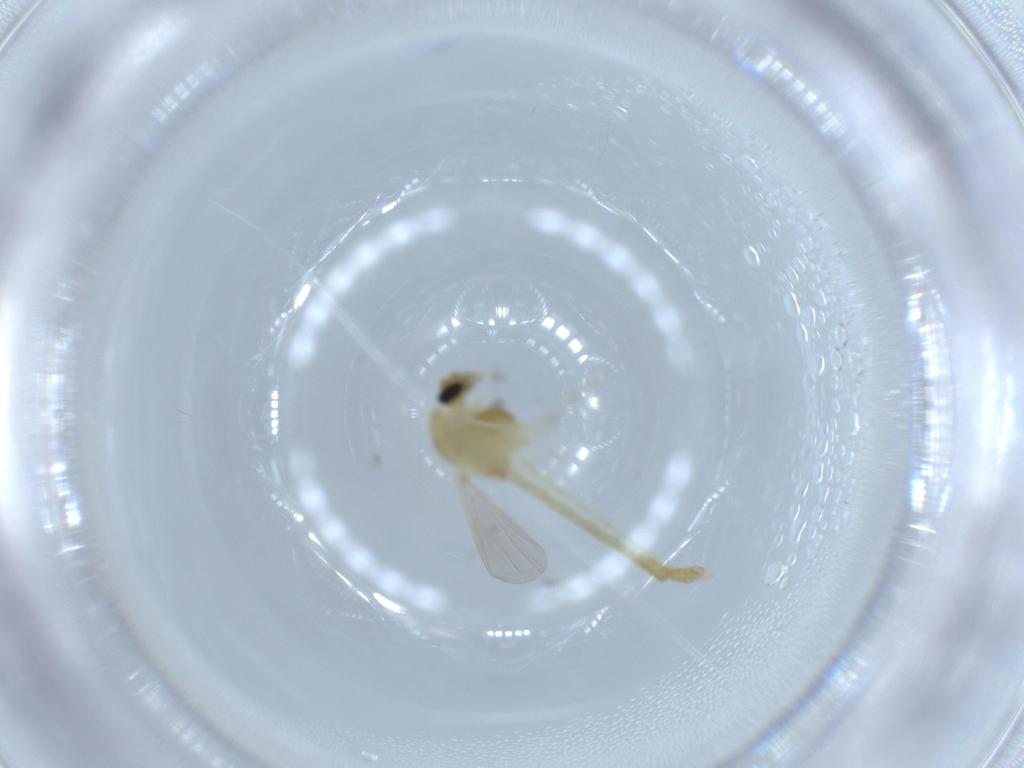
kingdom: Animalia
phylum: Arthropoda
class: Insecta
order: Diptera
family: Chironomidae
